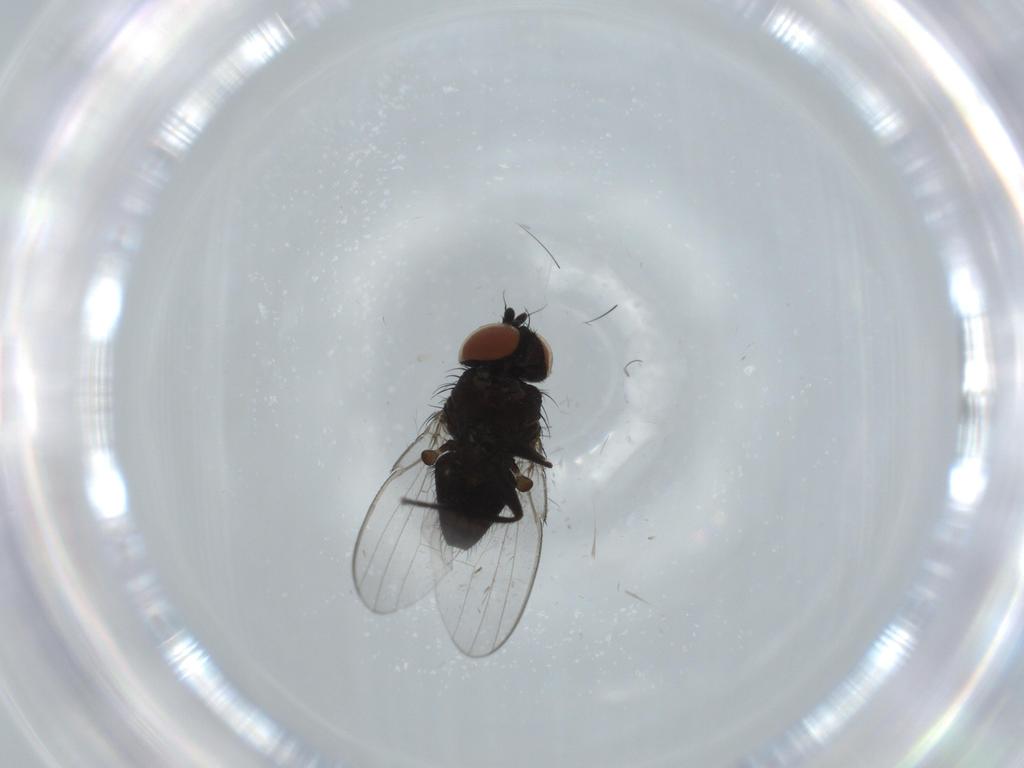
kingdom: Animalia
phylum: Arthropoda
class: Insecta
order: Diptera
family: Milichiidae
